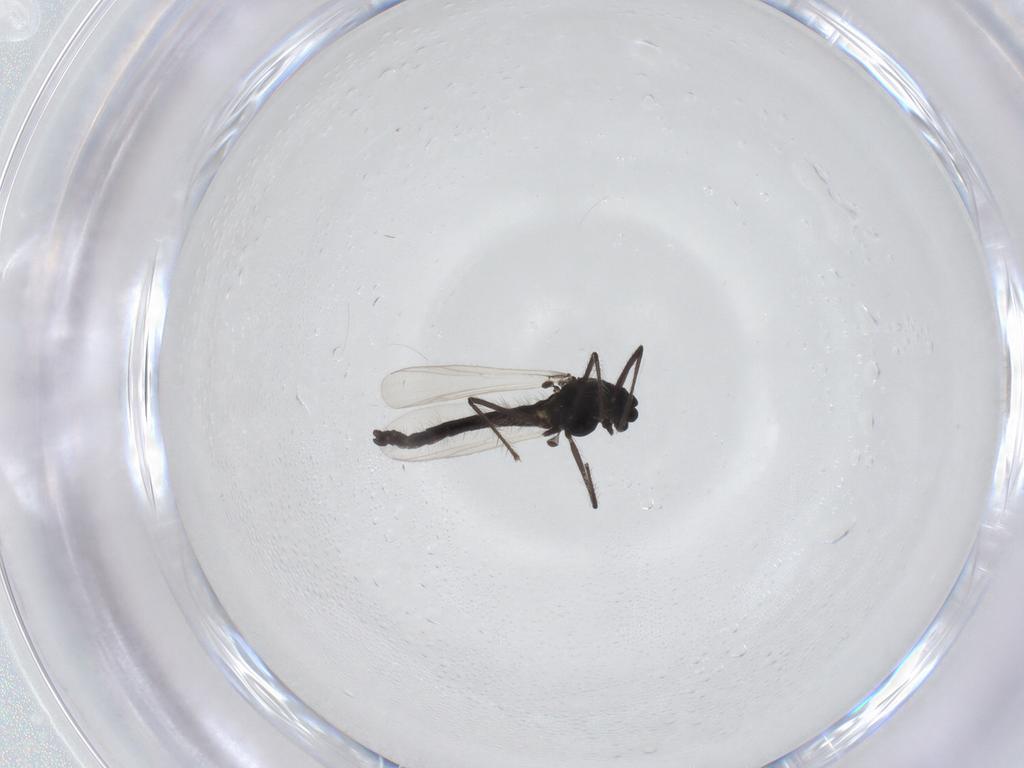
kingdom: Animalia
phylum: Arthropoda
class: Insecta
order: Diptera
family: Chironomidae
